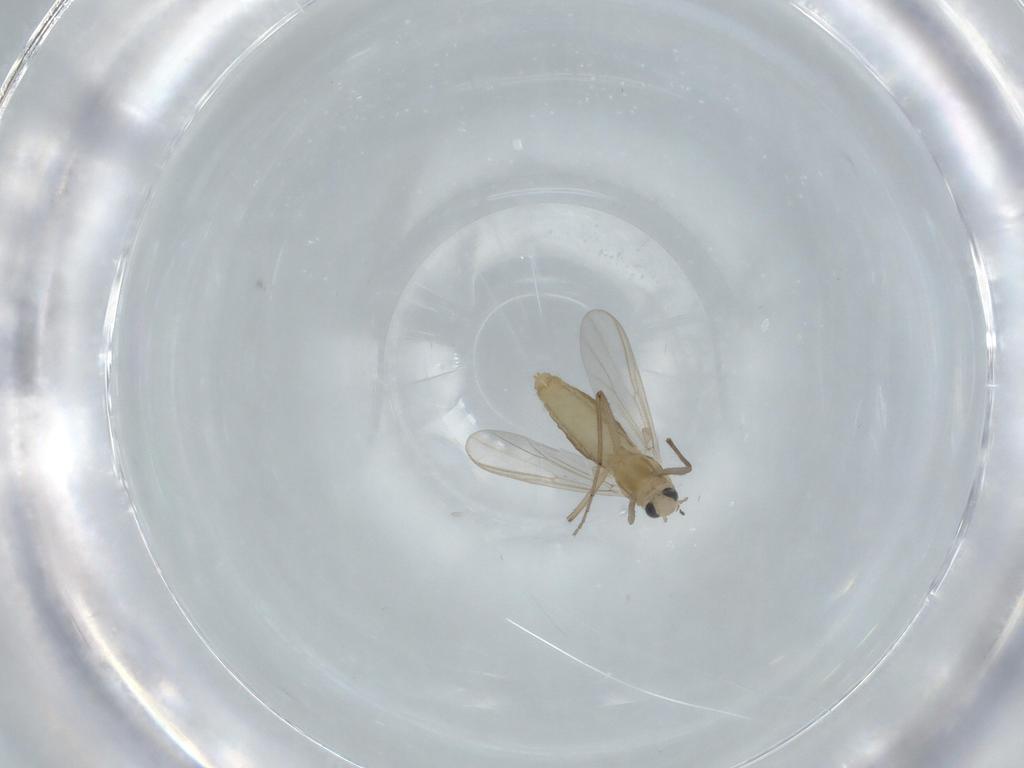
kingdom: Animalia
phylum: Arthropoda
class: Insecta
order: Diptera
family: Chironomidae
